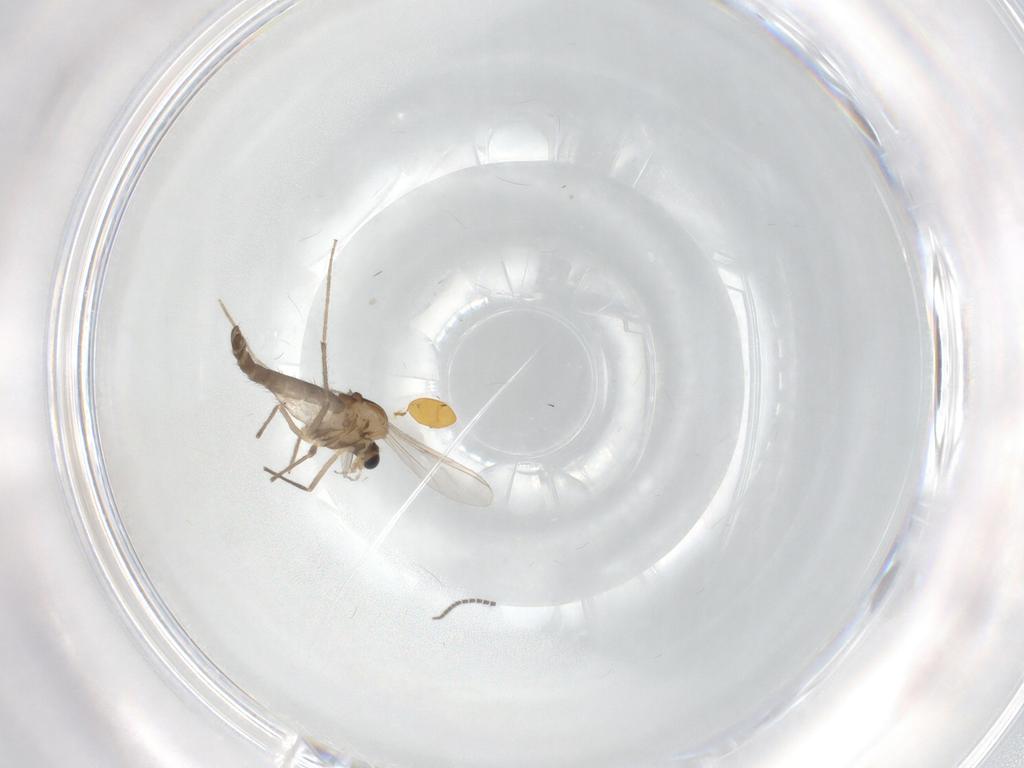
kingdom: Animalia
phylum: Arthropoda
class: Insecta
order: Diptera
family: Chironomidae
